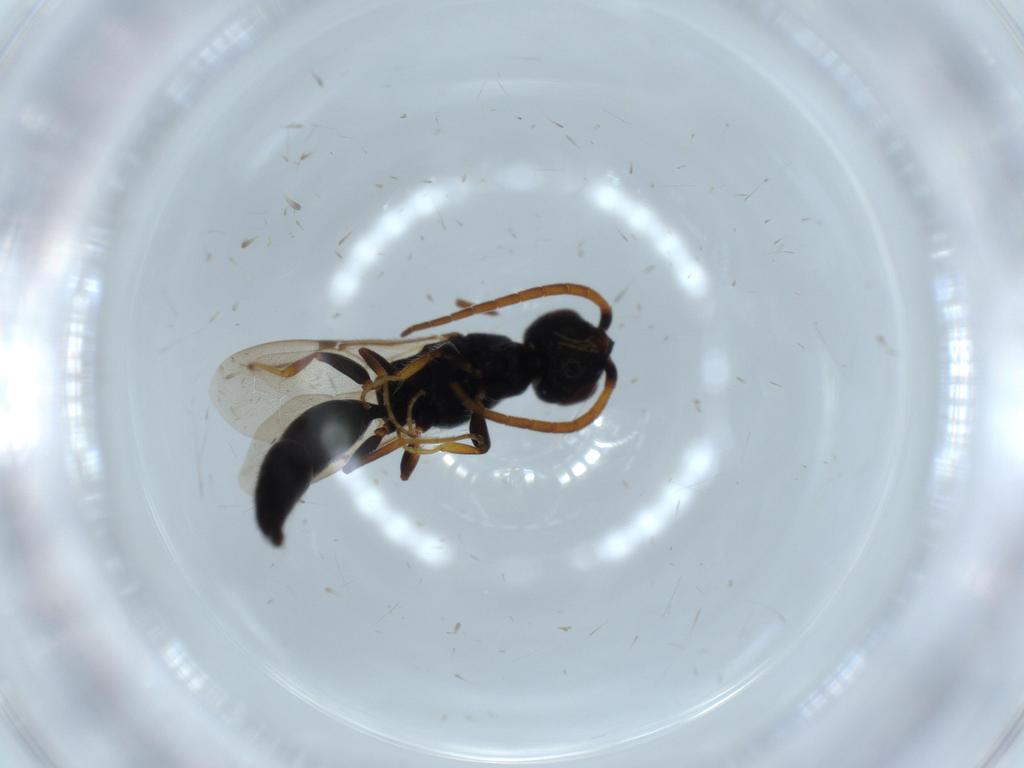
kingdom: Animalia
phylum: Arthropoda
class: Insecta
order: Hymenoptera
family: Bethylidae
